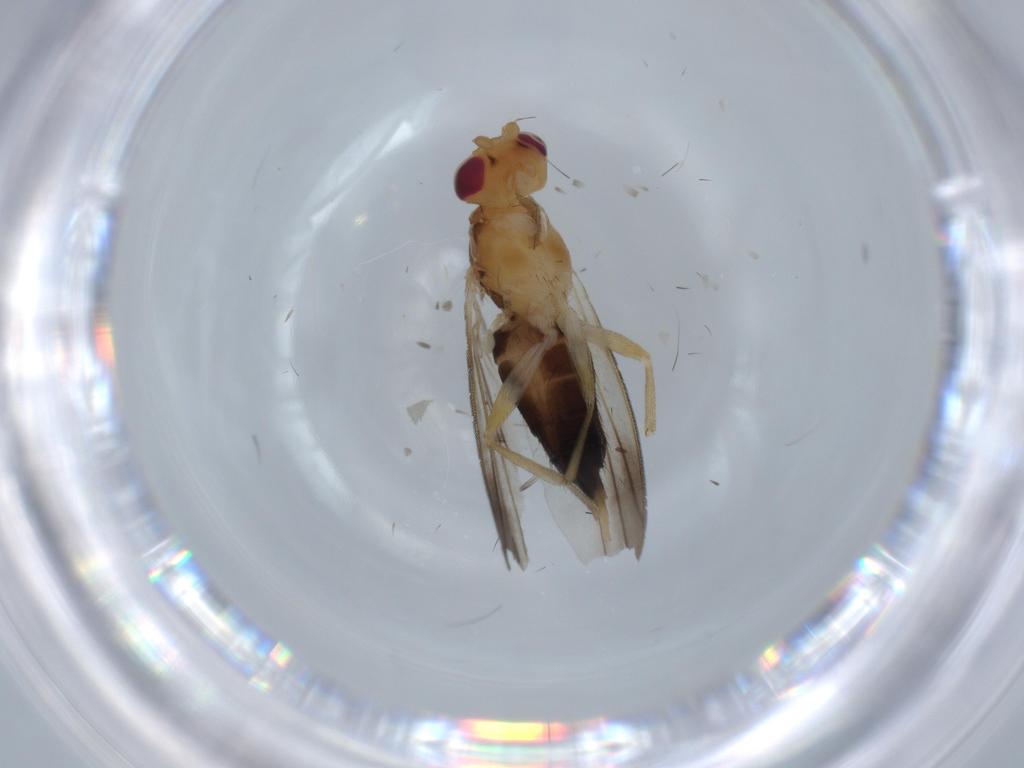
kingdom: Animalia
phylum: Arthropoda
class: Insecta
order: Diptera
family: Clusiidae
